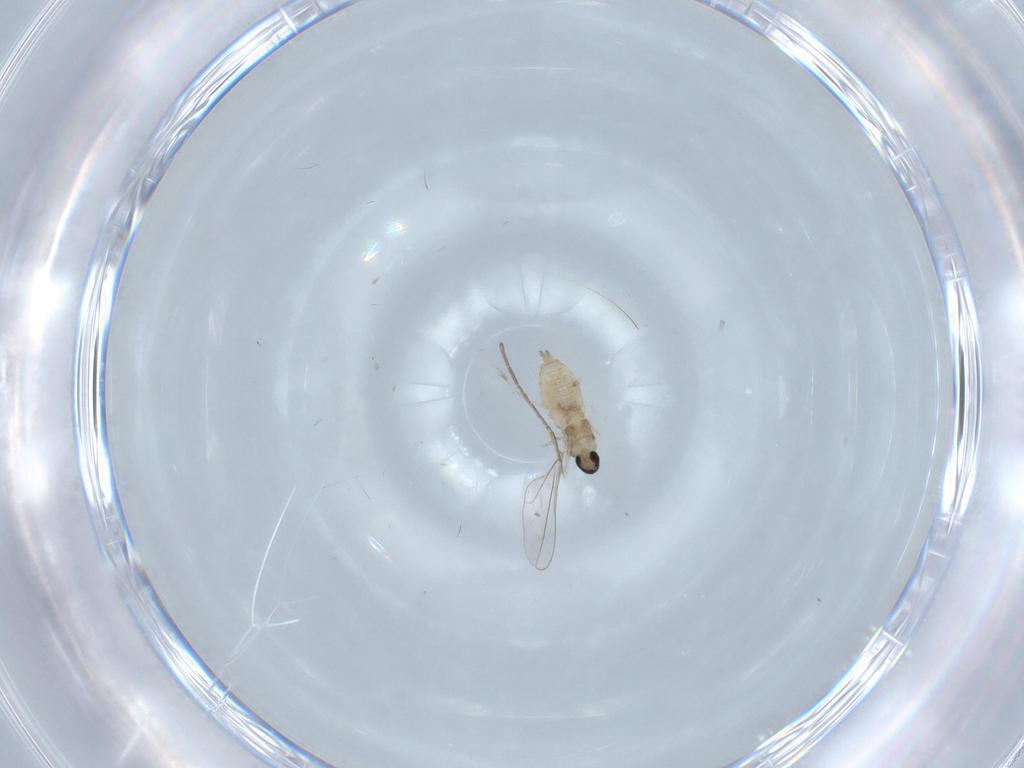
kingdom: Animalia
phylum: Arthropoda
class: Insecta
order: Diptera
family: Cecidomyiidae
